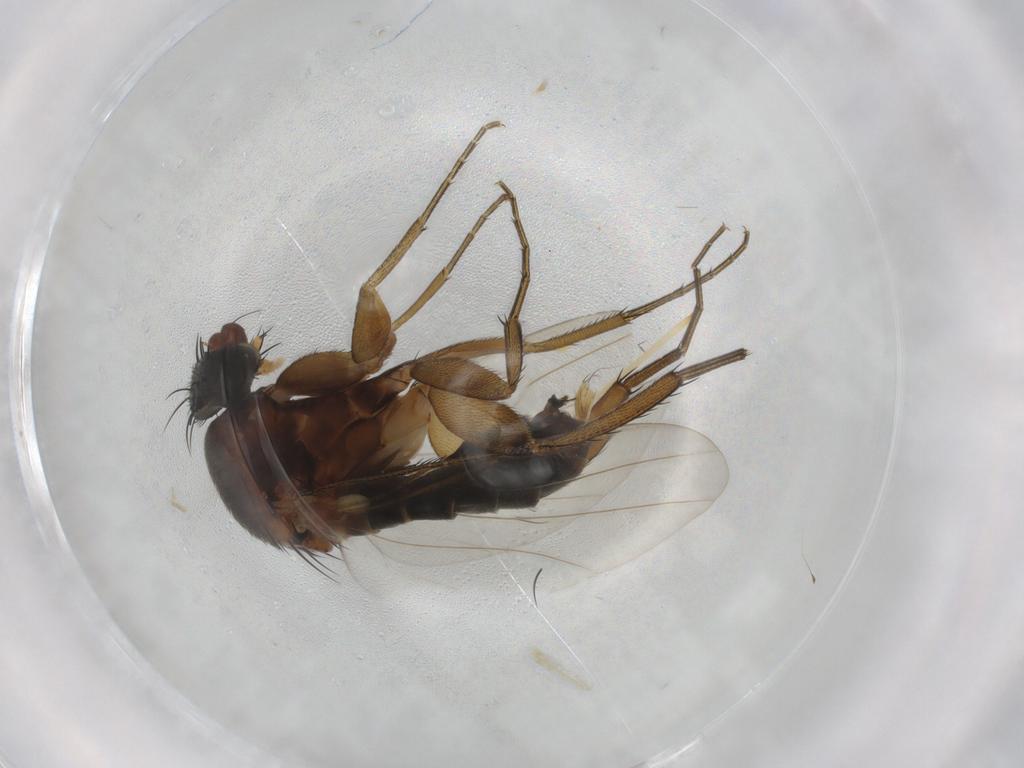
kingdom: Animalia
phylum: Arthropoda
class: Insecta
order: Diptera
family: Phoridae
